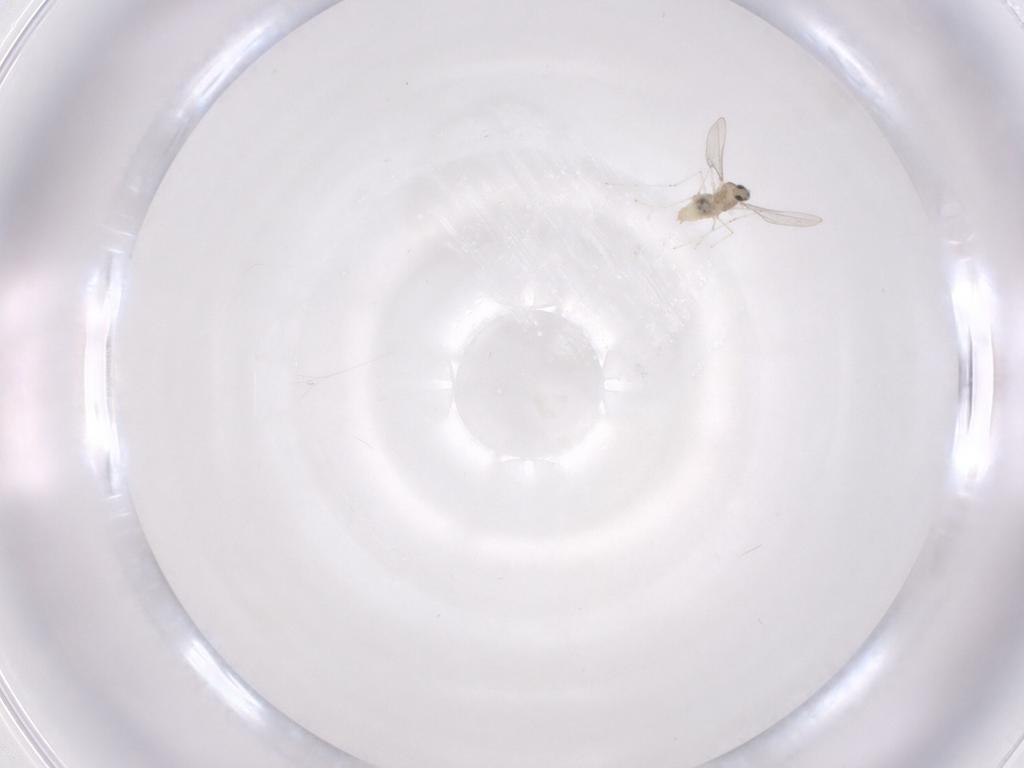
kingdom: Animalia
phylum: Arthropoda
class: Insecta
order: Diptera
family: Cecidomyiidae
